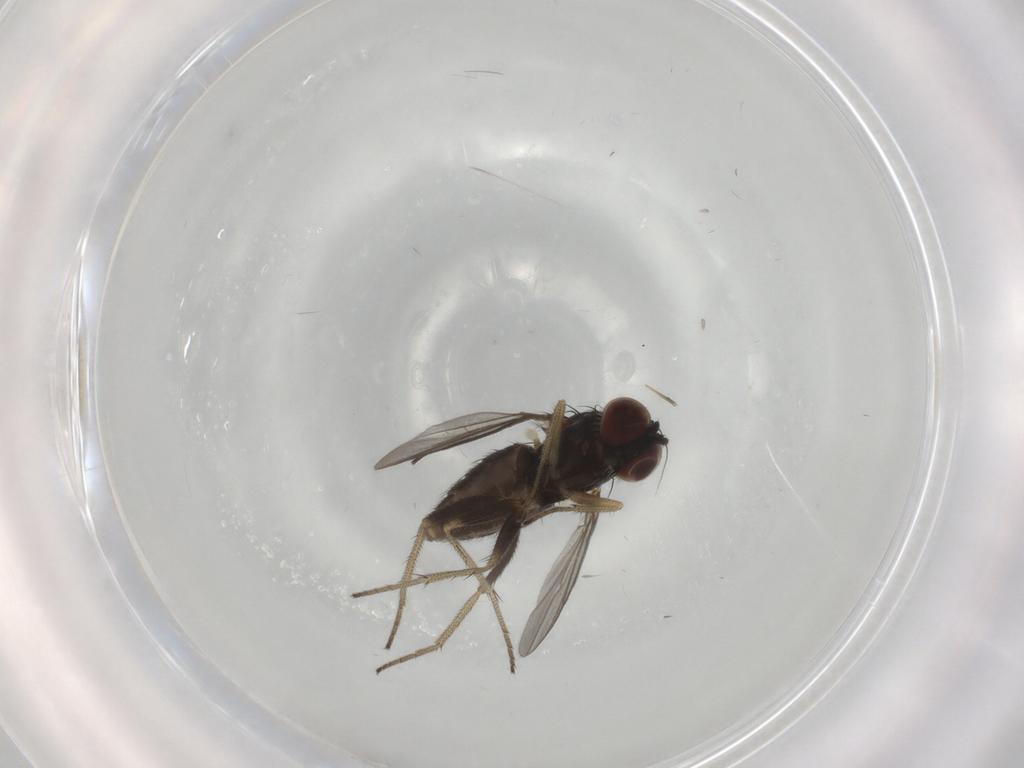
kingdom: Animalia
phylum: Arthropoda
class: Insecta
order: Diptera
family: Dolichopodidae
